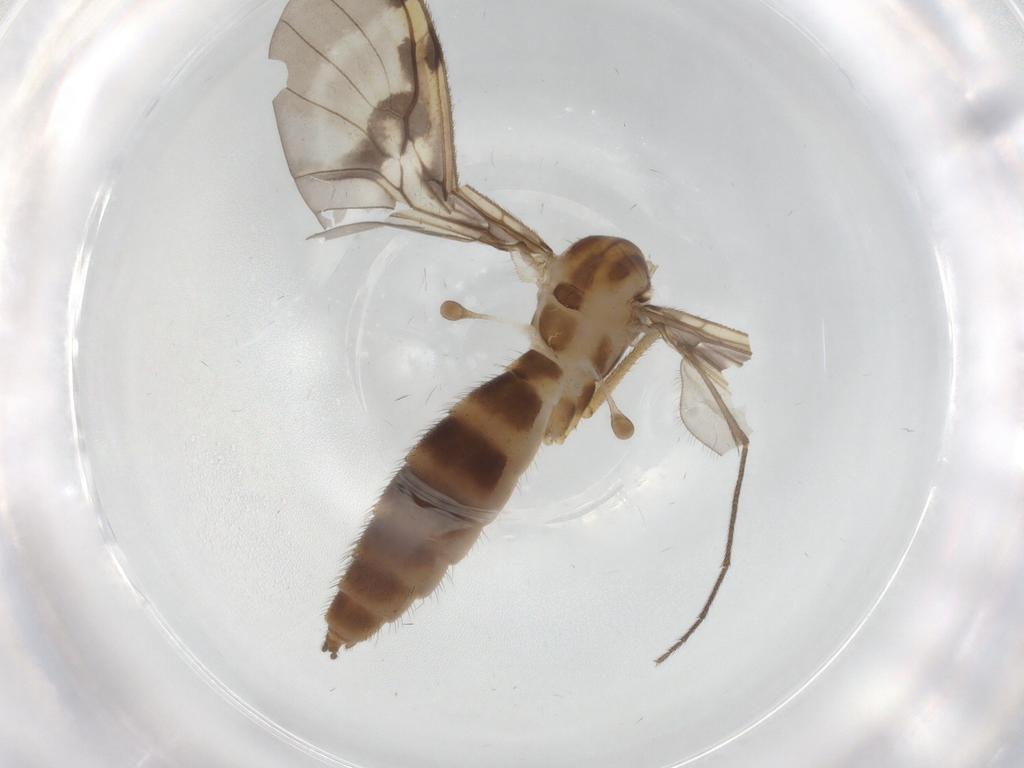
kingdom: Animalia
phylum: Arthropoda
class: Insecta
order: Diptera
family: Keroplatidae
